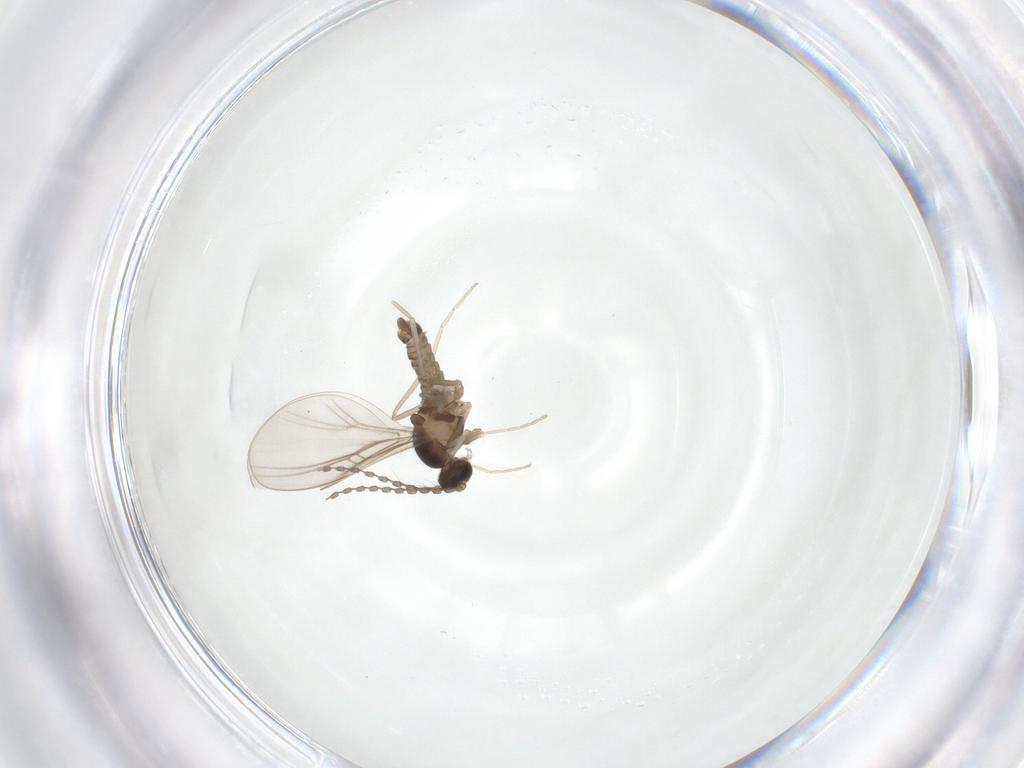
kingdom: Animalia
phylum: Arthropoda
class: Insecta
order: Diptera
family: Cecidomyiidae
